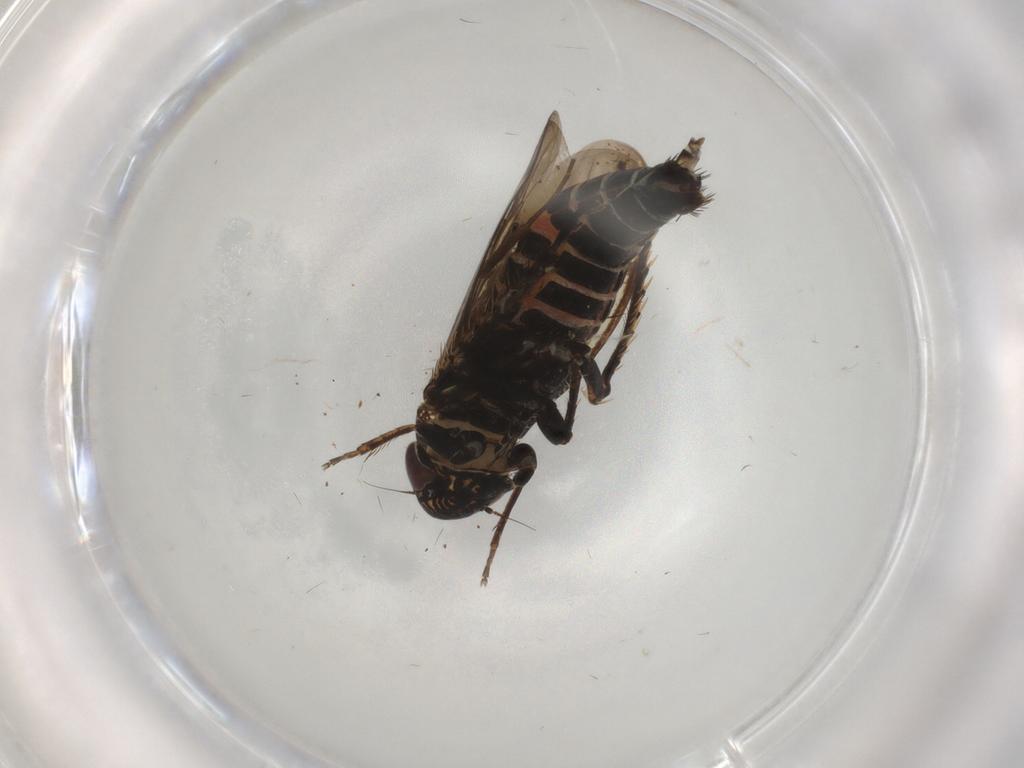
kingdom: Animalia
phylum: Arthropoda
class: Insecta
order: Hemiptera
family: Cicadellidae
